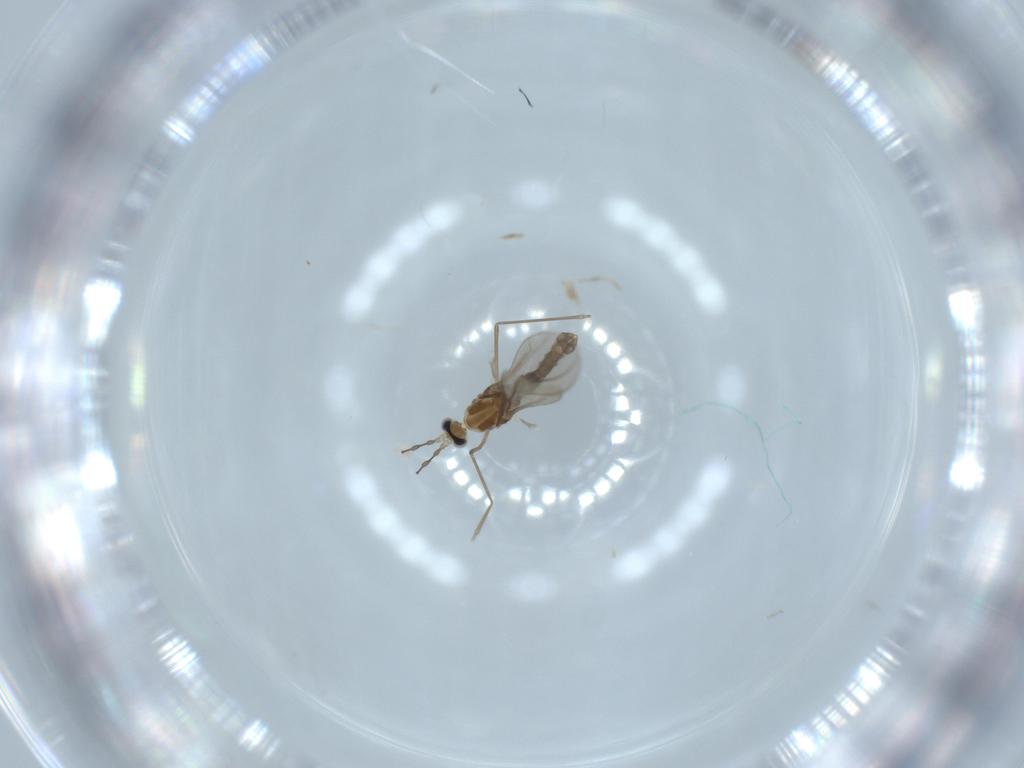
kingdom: Animalia
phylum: Arthropoda
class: Insecta
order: Diptera
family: Cecidomyiidae
